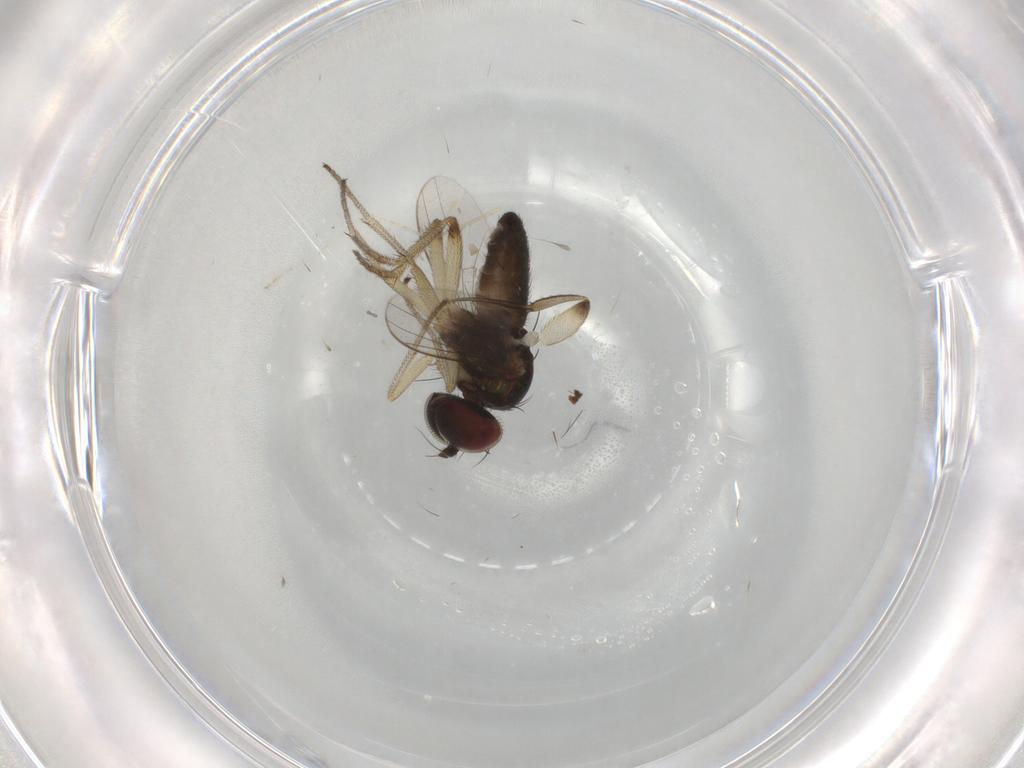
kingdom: Animalia
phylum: Arthropoda
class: Insecta
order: Diptera
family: Phoridae
